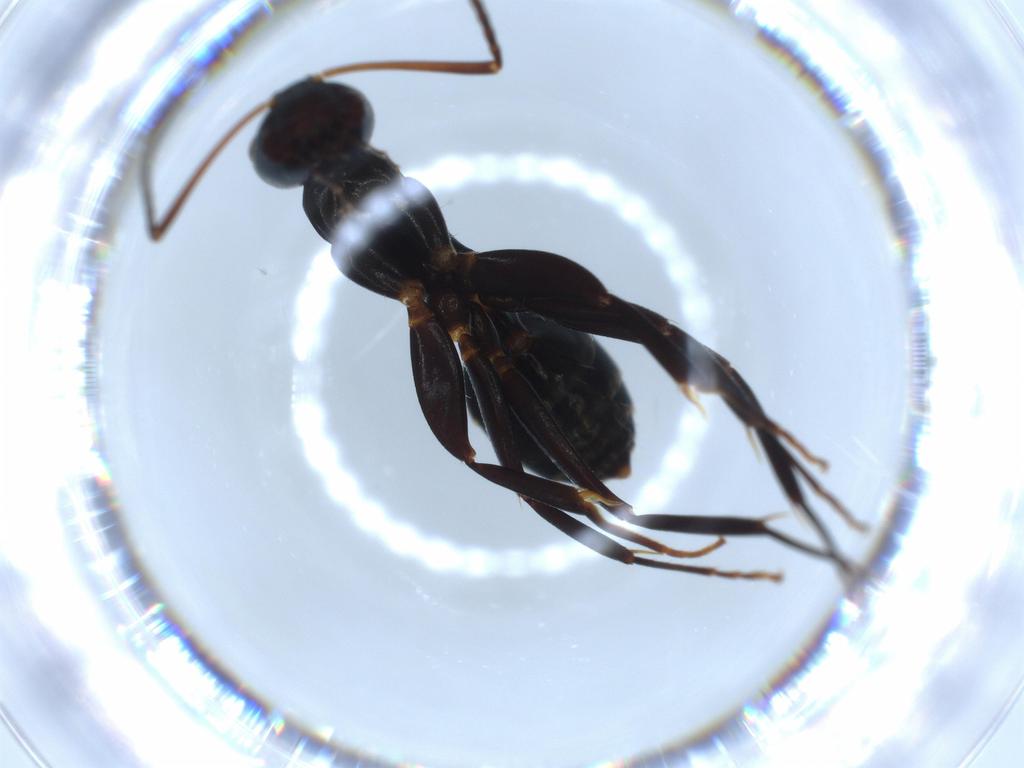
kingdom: Animalia
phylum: Arthropoda
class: Insecta
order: Hymenoptera
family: Formicidae
